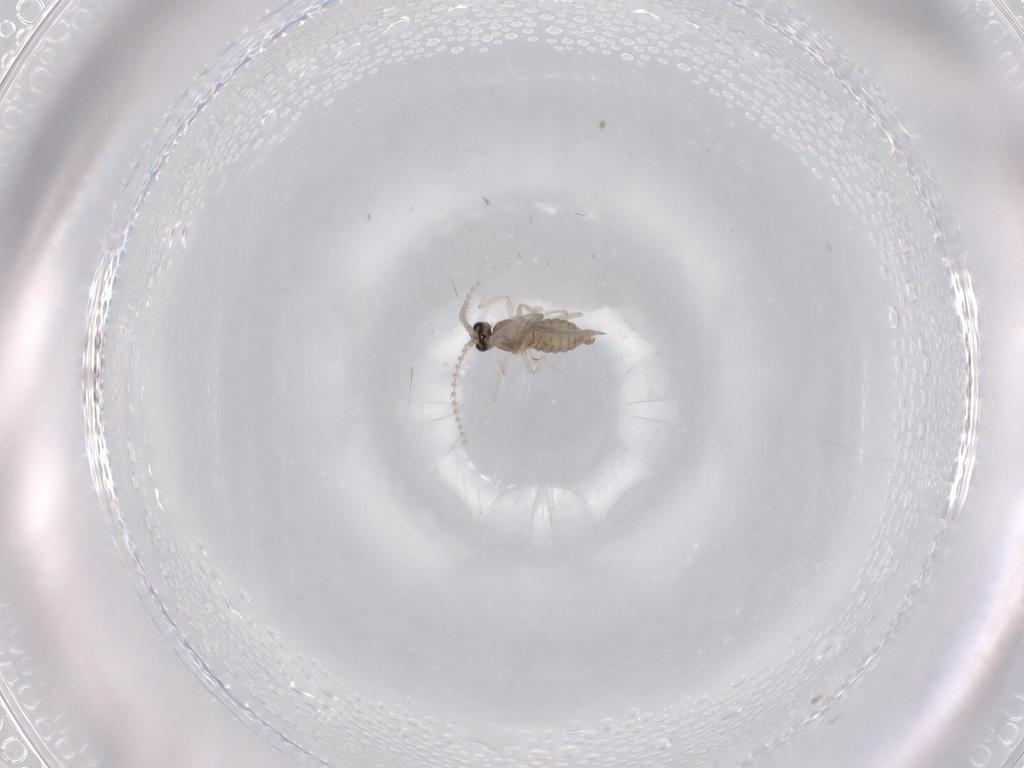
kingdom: Animalia
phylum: Arthropoda
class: Insecta
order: Diptera
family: Cecidomyiidae
